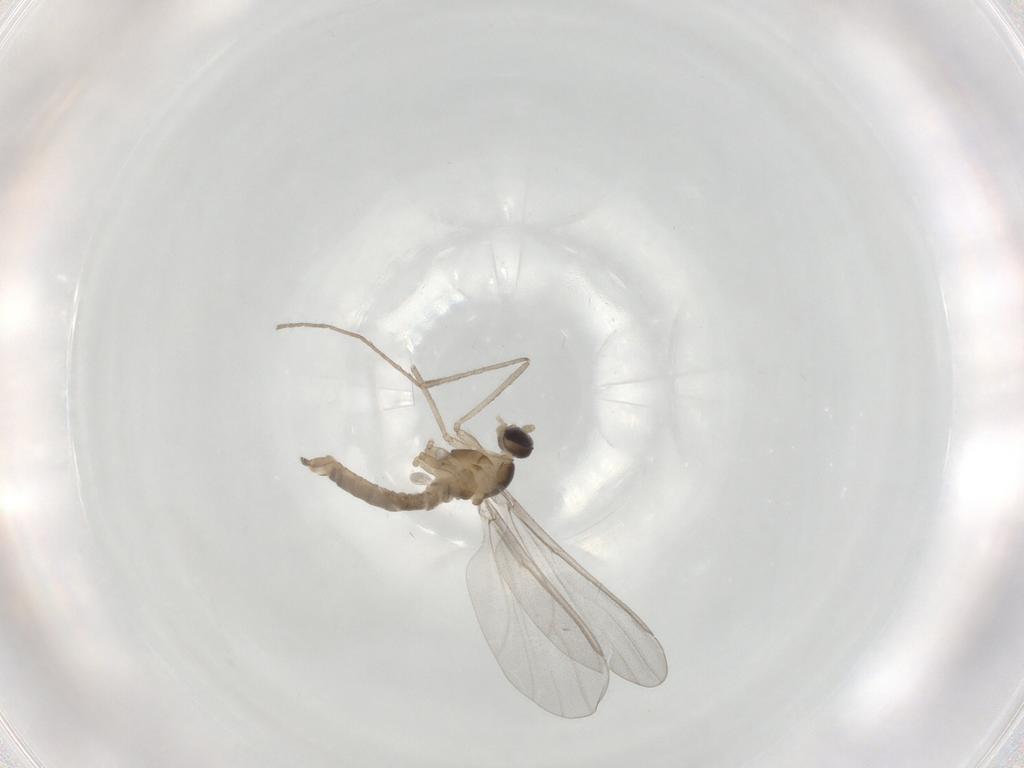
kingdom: Animalia
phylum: Arthropoda
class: Insecta
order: Diptera
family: Cecidomyiidae
